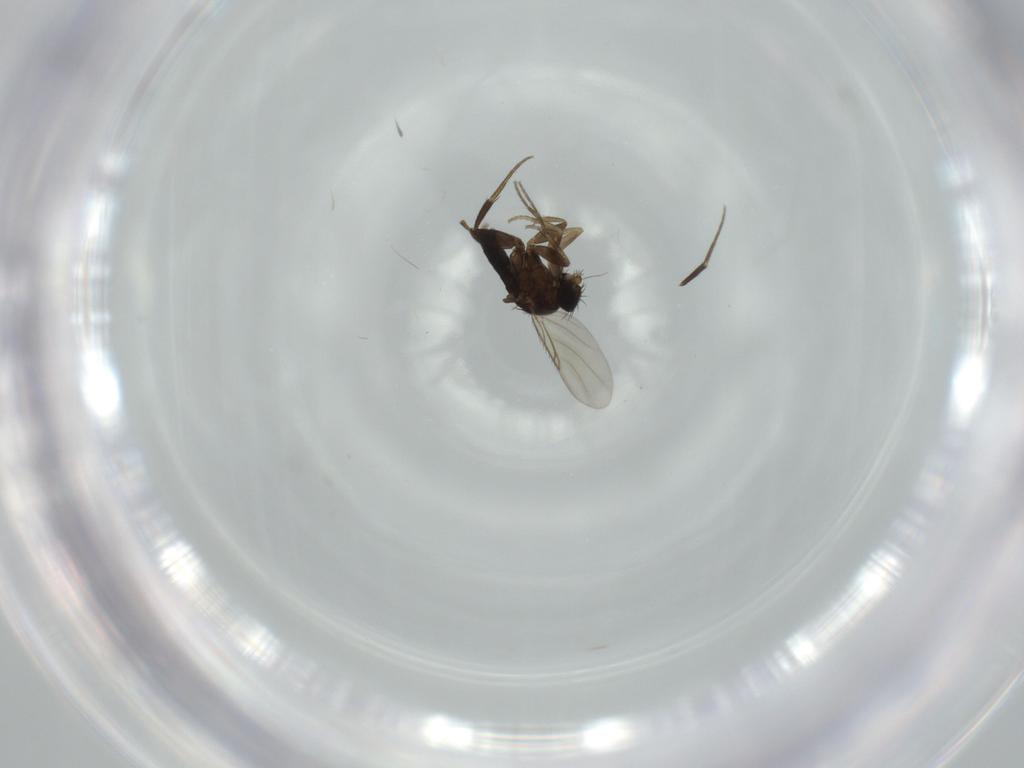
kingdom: Animalia
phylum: Arthropoda
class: Insecta
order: Diptera
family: Phoridae
